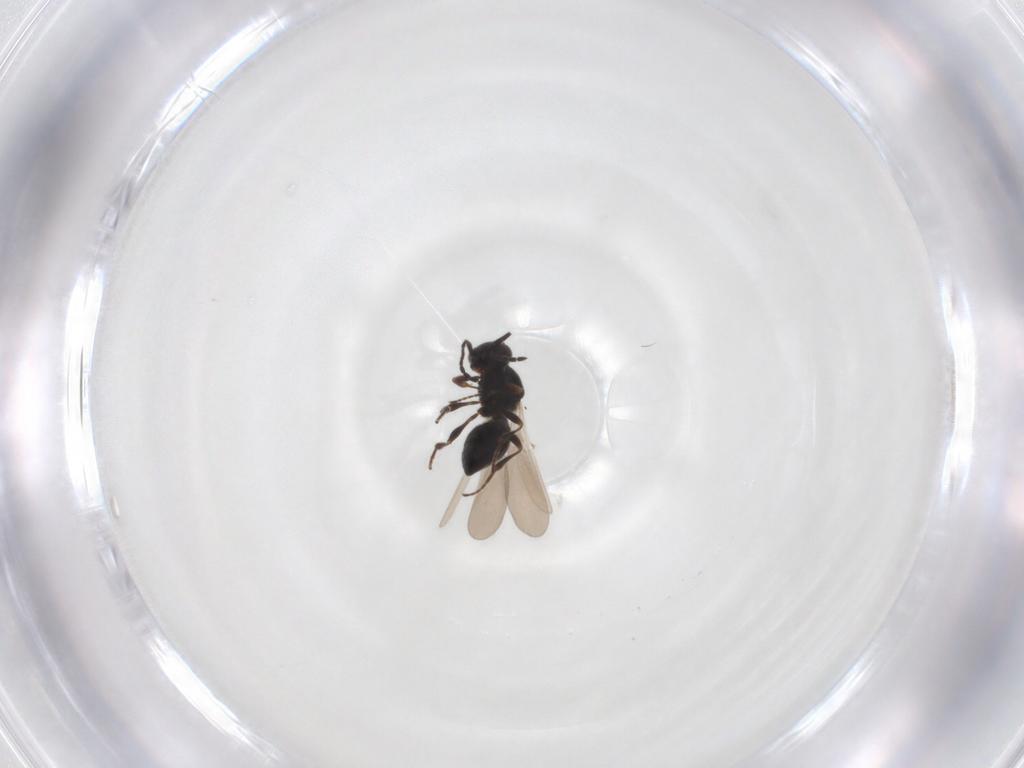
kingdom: Animalia
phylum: Arthropoda
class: Insecta
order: Hymenoptera
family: Platygastridae
